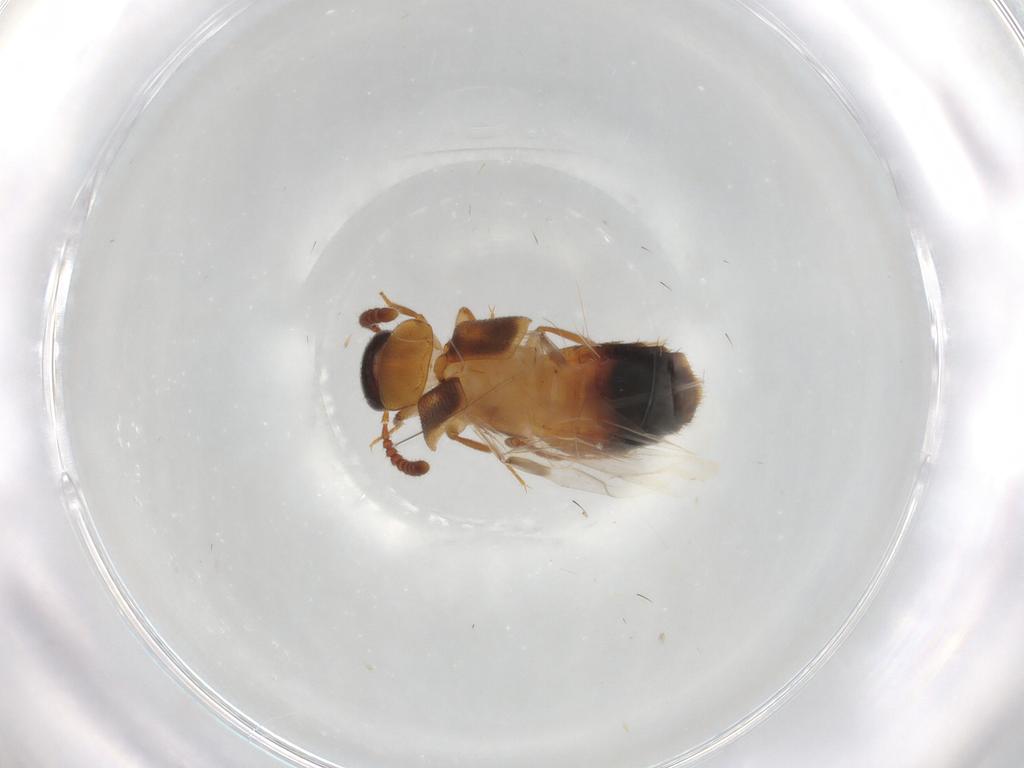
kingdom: Animalia
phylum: Arthropoda
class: Insecta
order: Coleoptera
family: Staphylinidae
